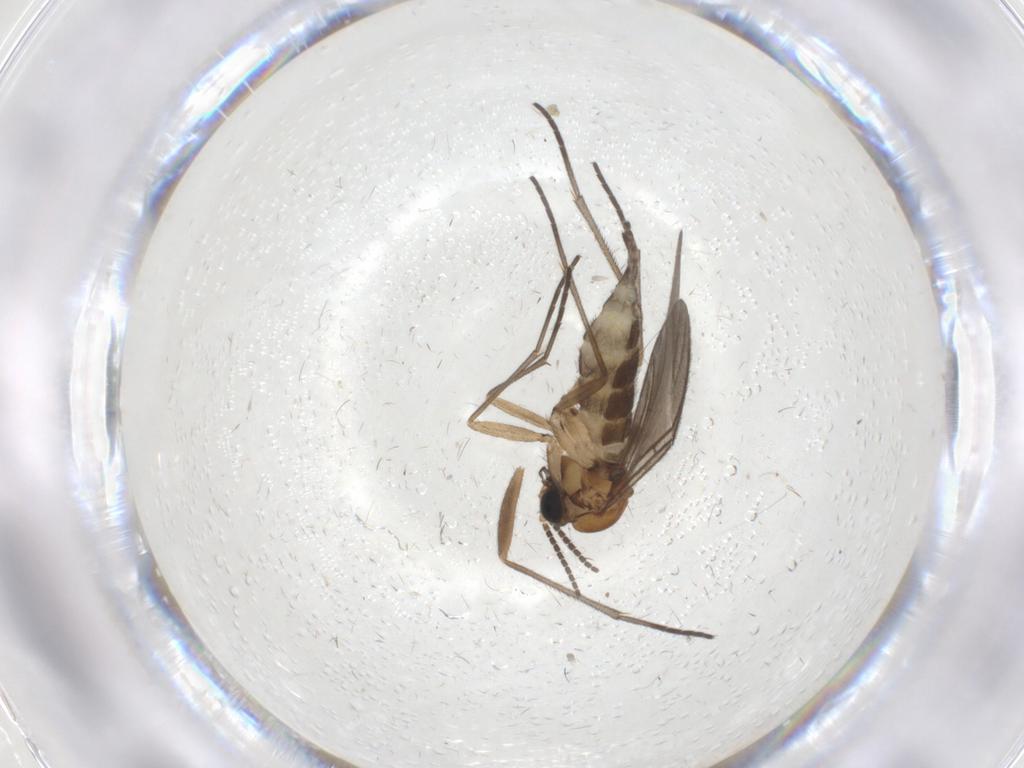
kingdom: Animalia
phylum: Arthropoda
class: Insecta
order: Diptera
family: Sciaridae
